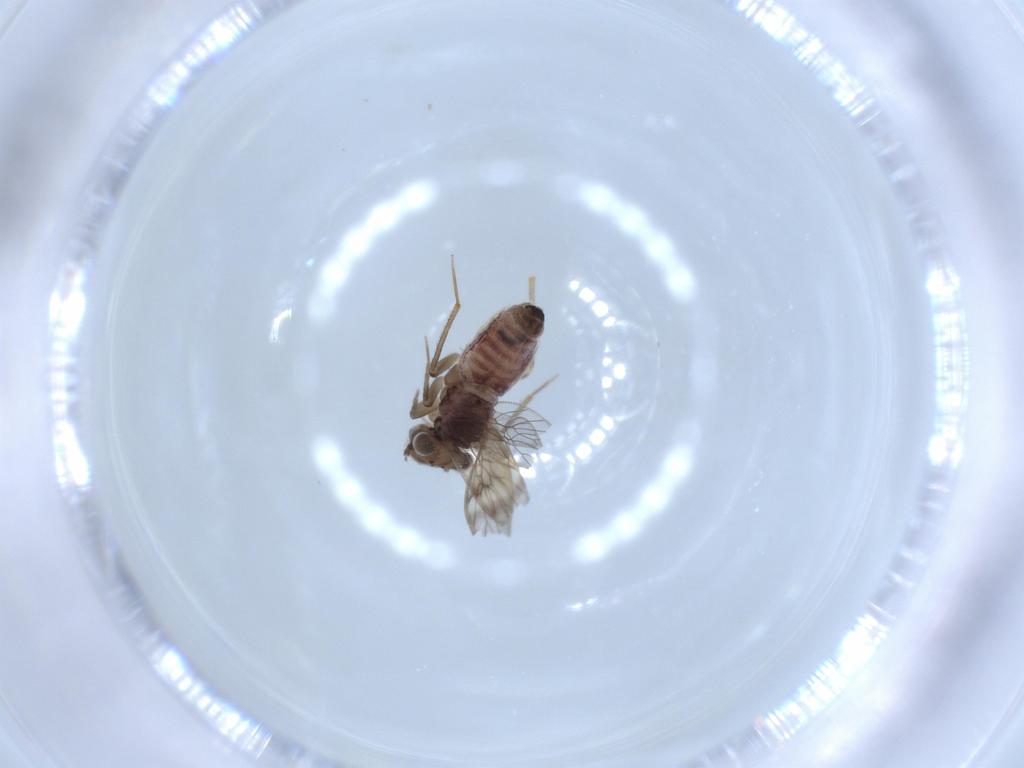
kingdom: Animalia
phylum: Arthropoda
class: Insecta
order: Psocodea
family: Lepidopsocidae
